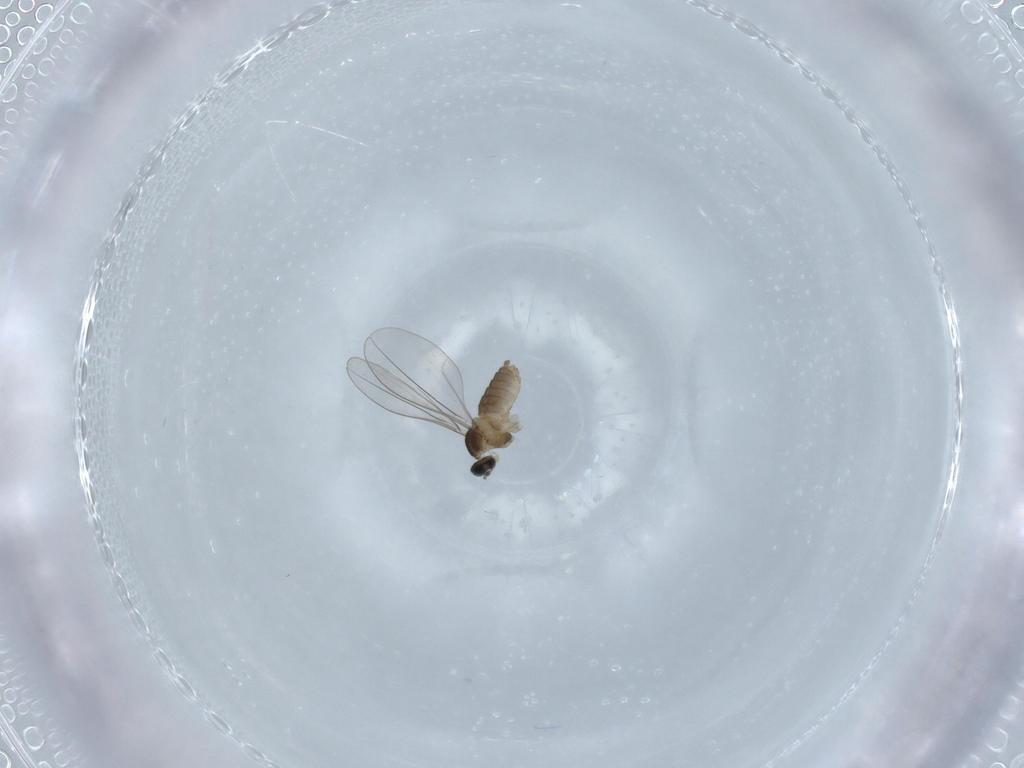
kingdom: Animalia
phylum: Arthropoda
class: Insecta
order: Diptera
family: Cecidomyiidae
